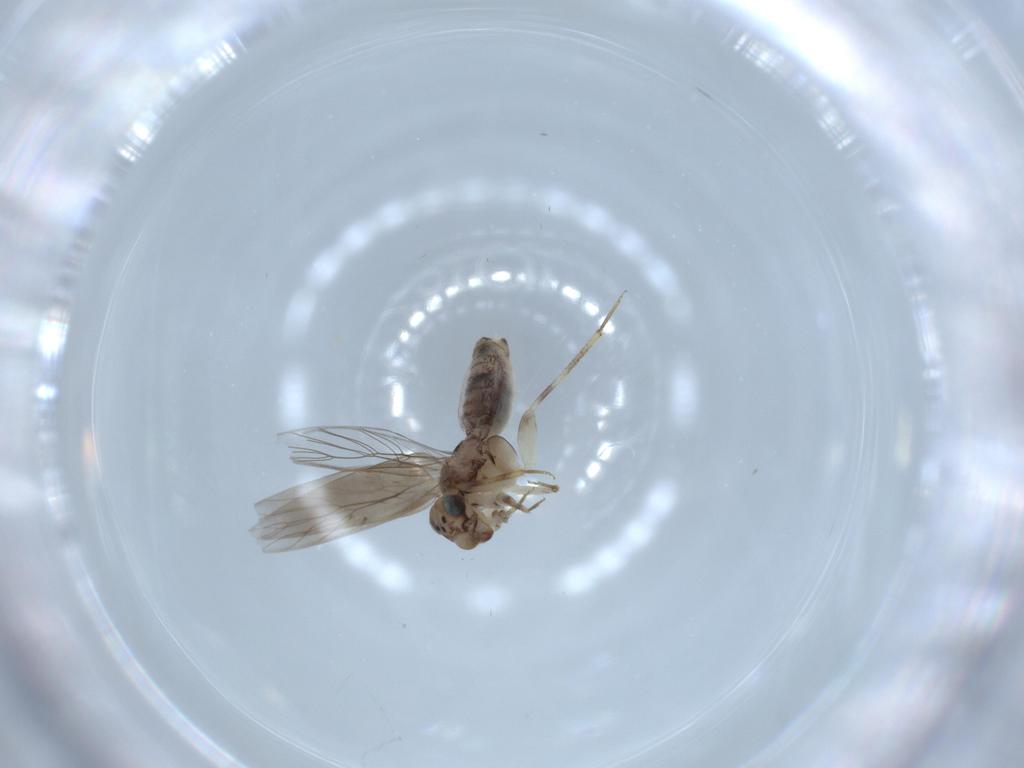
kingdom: Animalia
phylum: Arthropoda
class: Insecta
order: Psocodea
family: Lepidopsocidae
